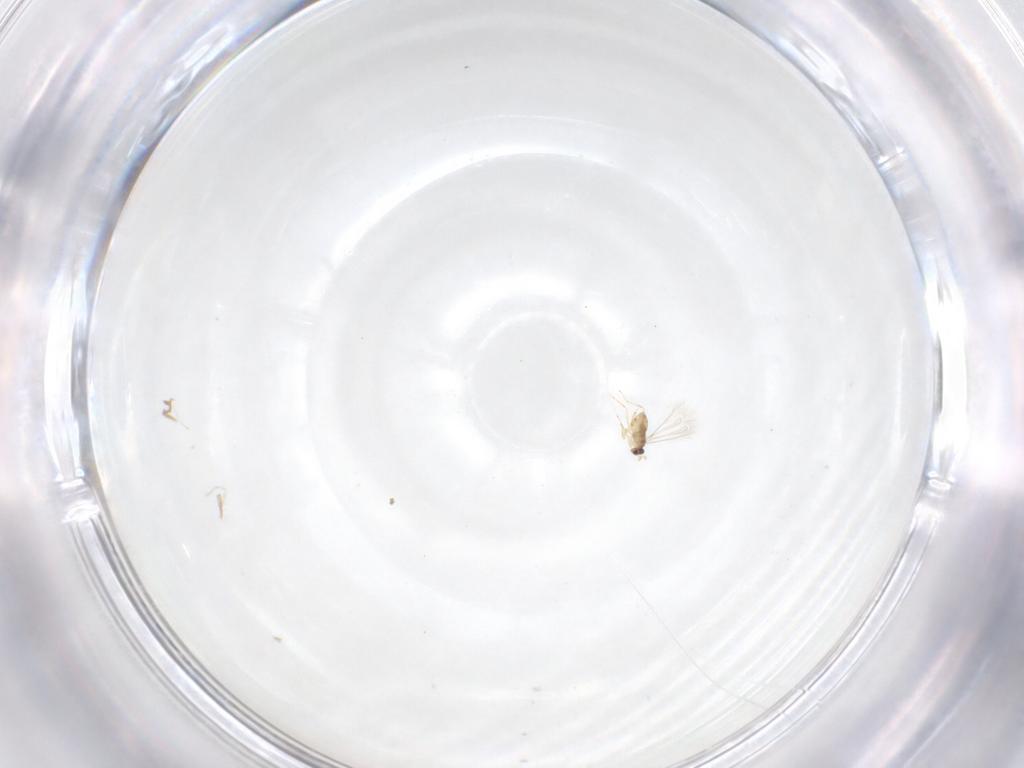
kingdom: Animalia
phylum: Arthropoda
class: Insecta
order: Hymenoptera
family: Mymaridae
